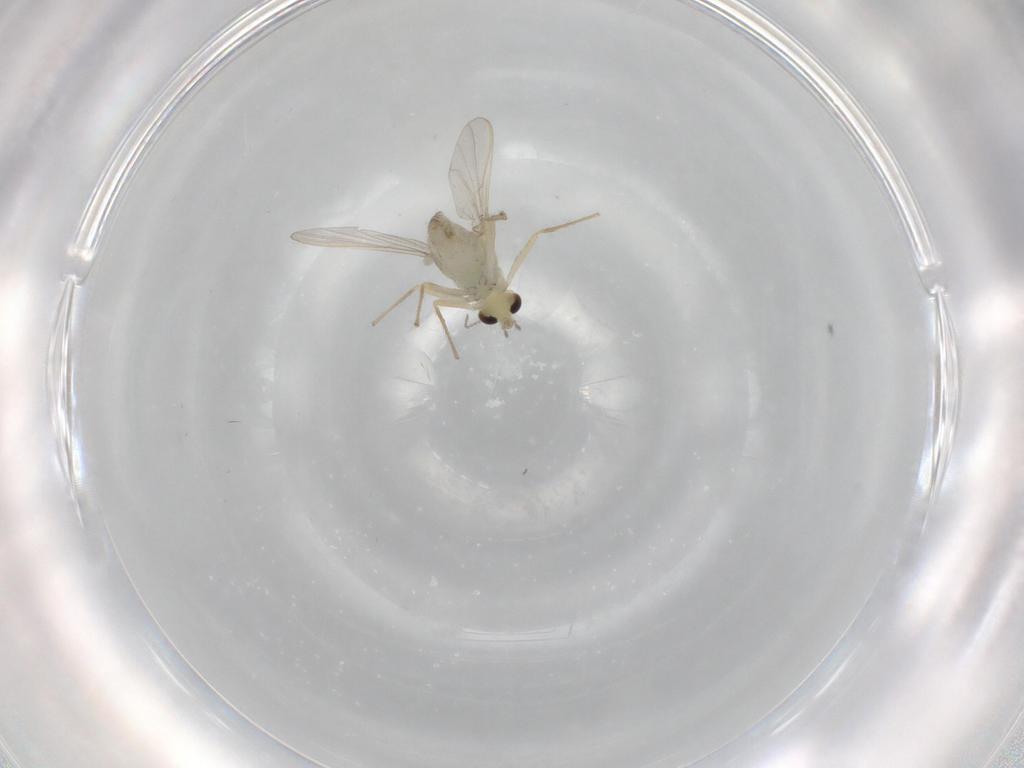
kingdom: Animalia
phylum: Arthropoda
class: Insecta
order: Diptera
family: Chironomidae
